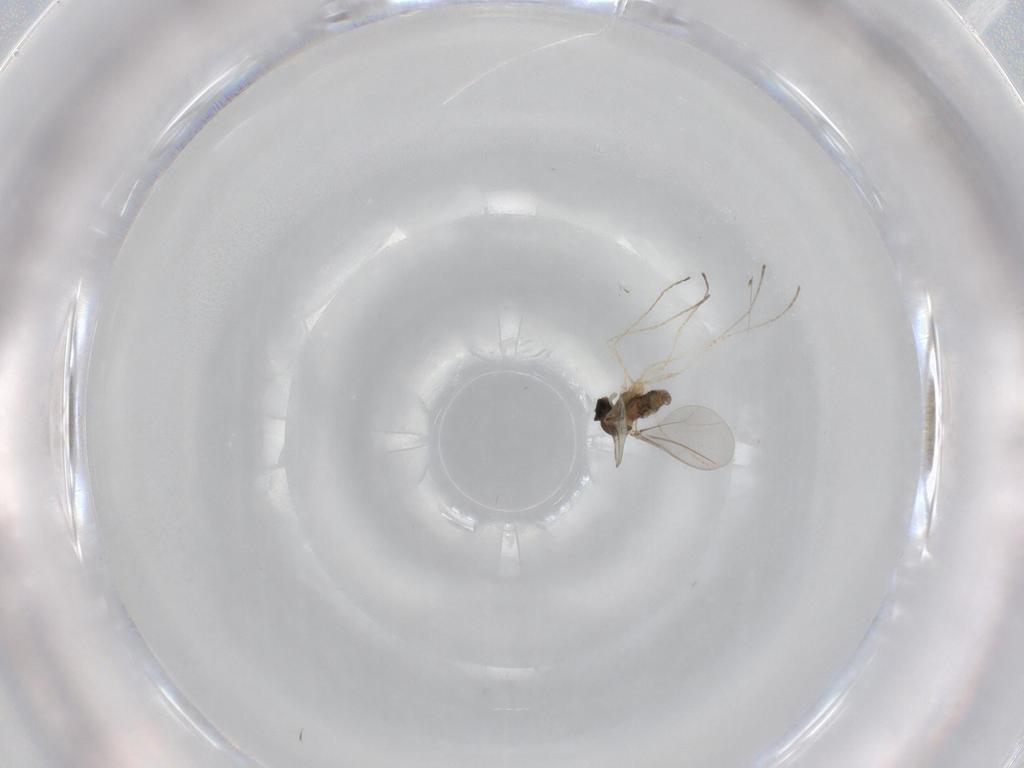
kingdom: Animalia
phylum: Arthropoda
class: Insecta
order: Diptera
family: Cecidomyiidae
